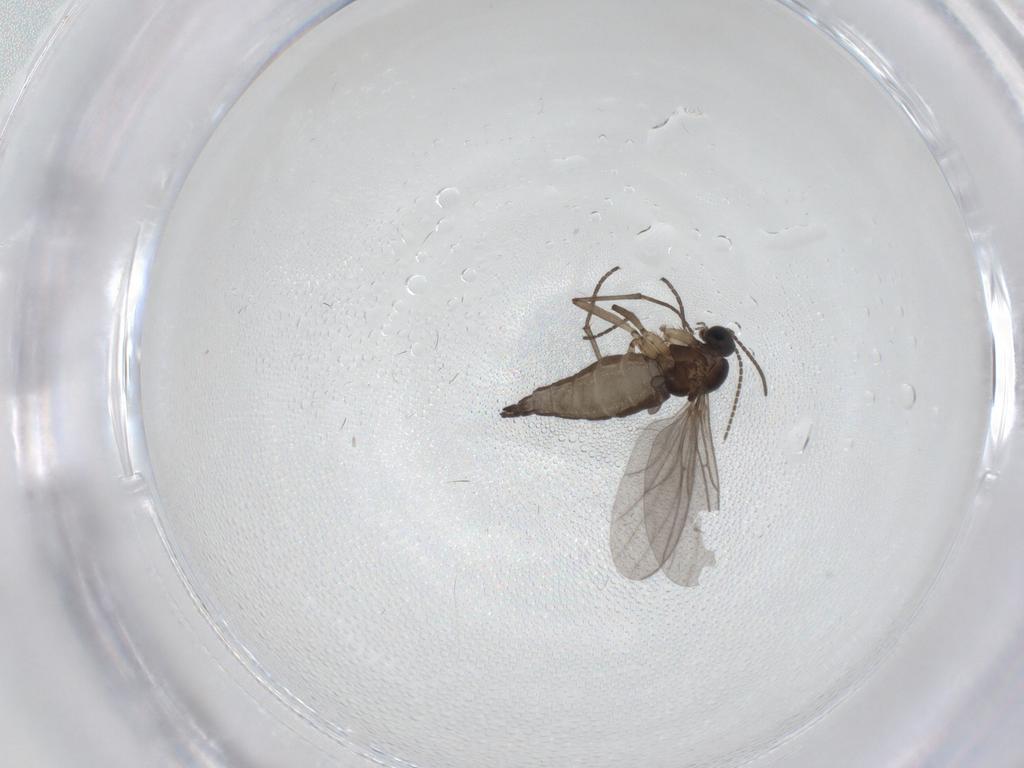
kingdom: Animalia
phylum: Arthropoda
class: Insecta
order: Diptera
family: Sciaridae
